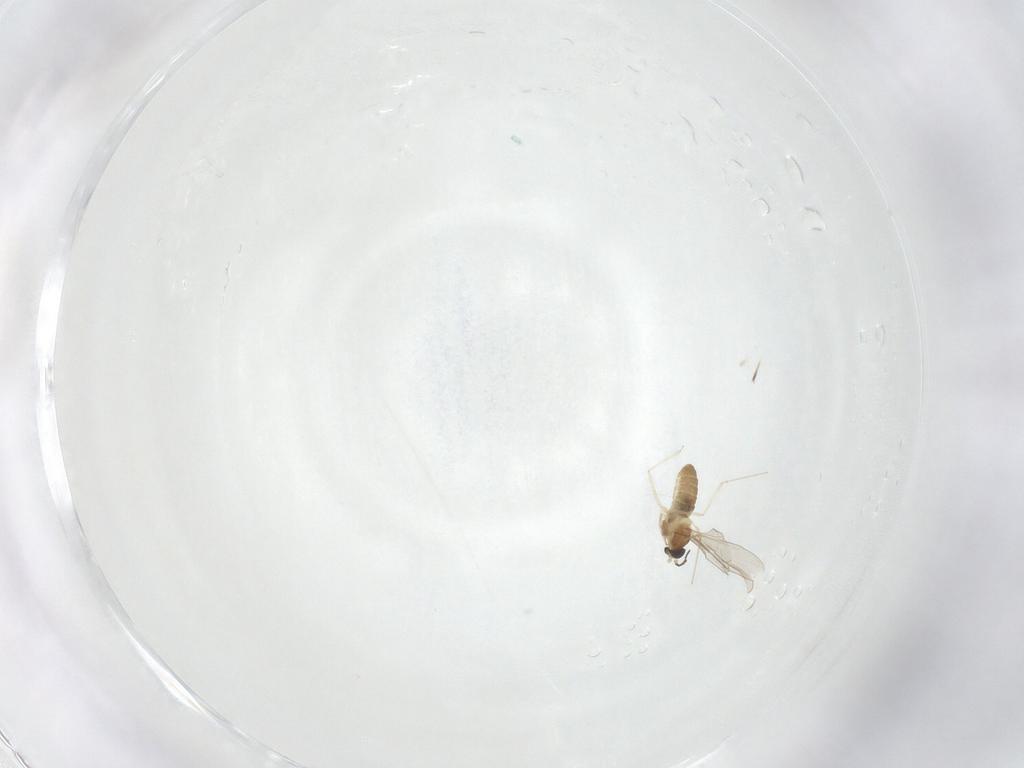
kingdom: Animalia
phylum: Arthropoda
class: Insecta
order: Diptera
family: Cecidomyiidae
